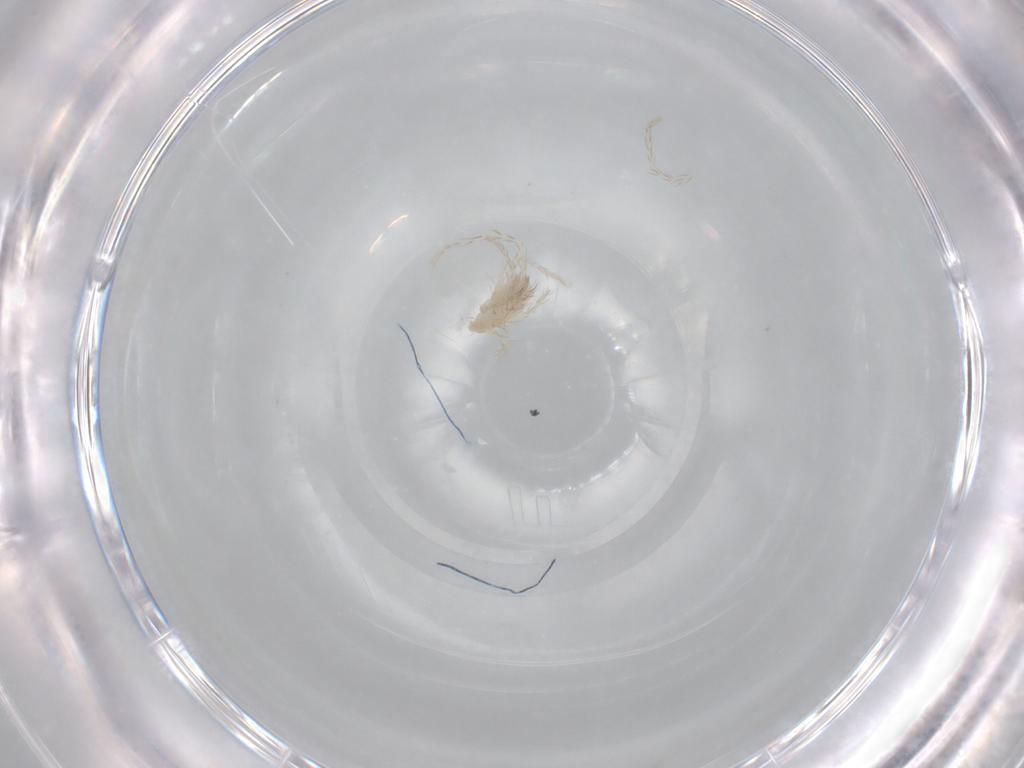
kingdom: Animalia
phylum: Arthropoda
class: Arachnida
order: Trombidiformes
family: Erythraeidae
